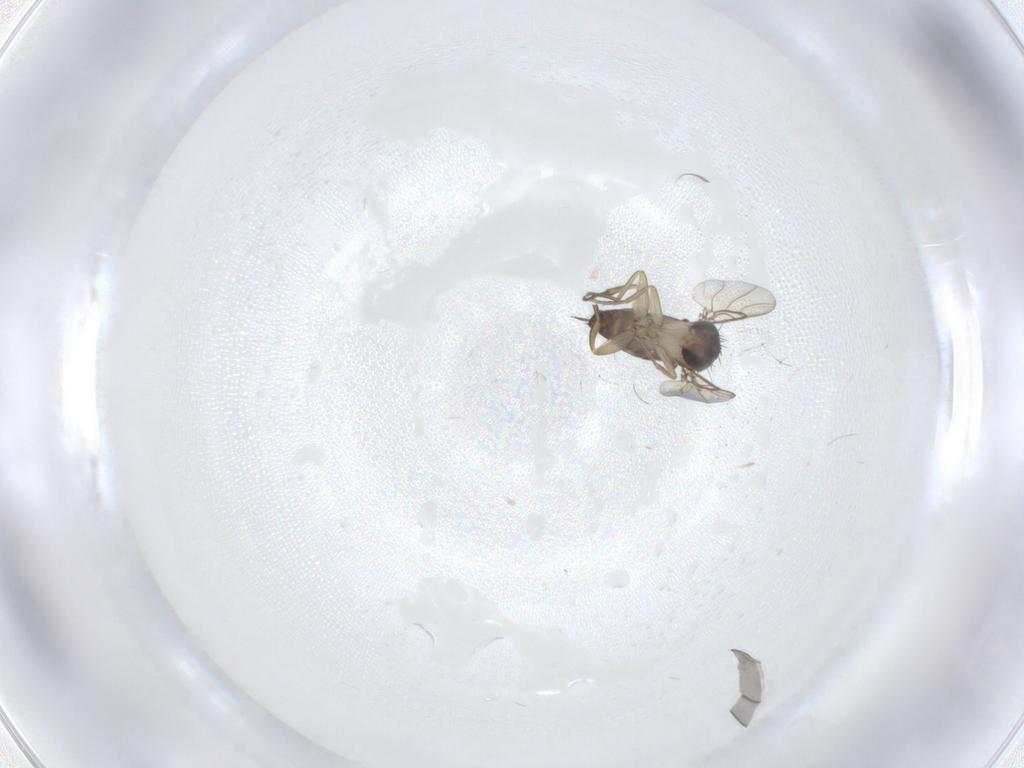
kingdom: Animalia
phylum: Arthropoda
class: Insecta
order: Diptera
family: Sciaridae
